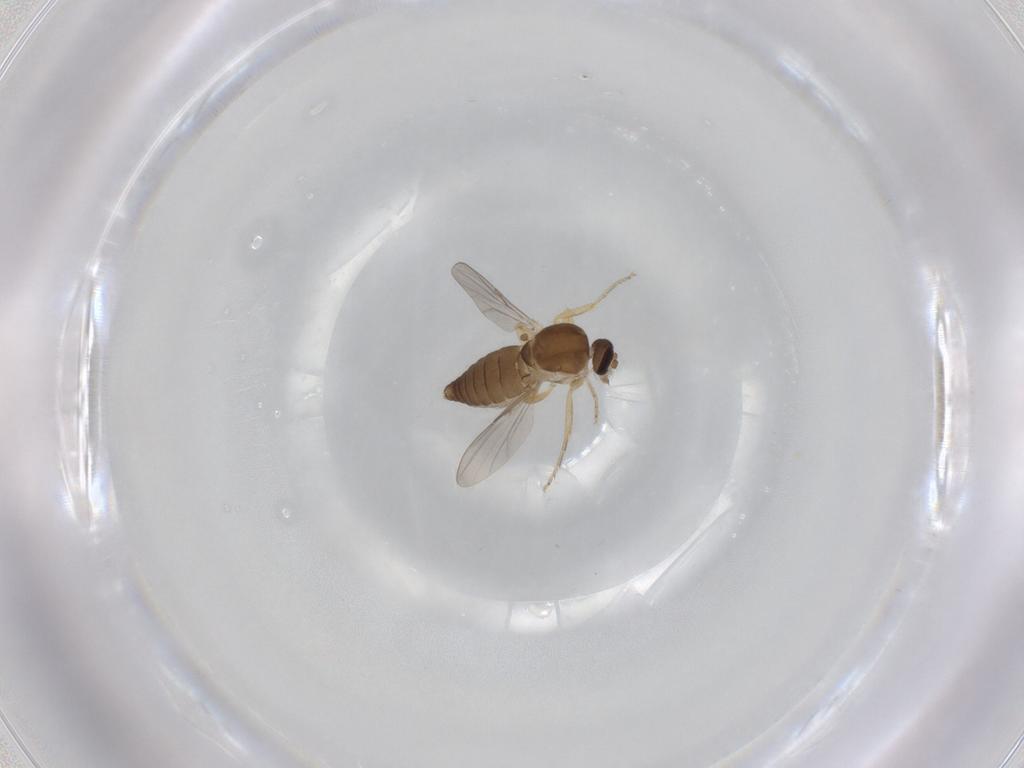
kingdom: Animalia
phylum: Arthropoda
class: Insecta
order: Diptera
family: Ceratopogonidae
